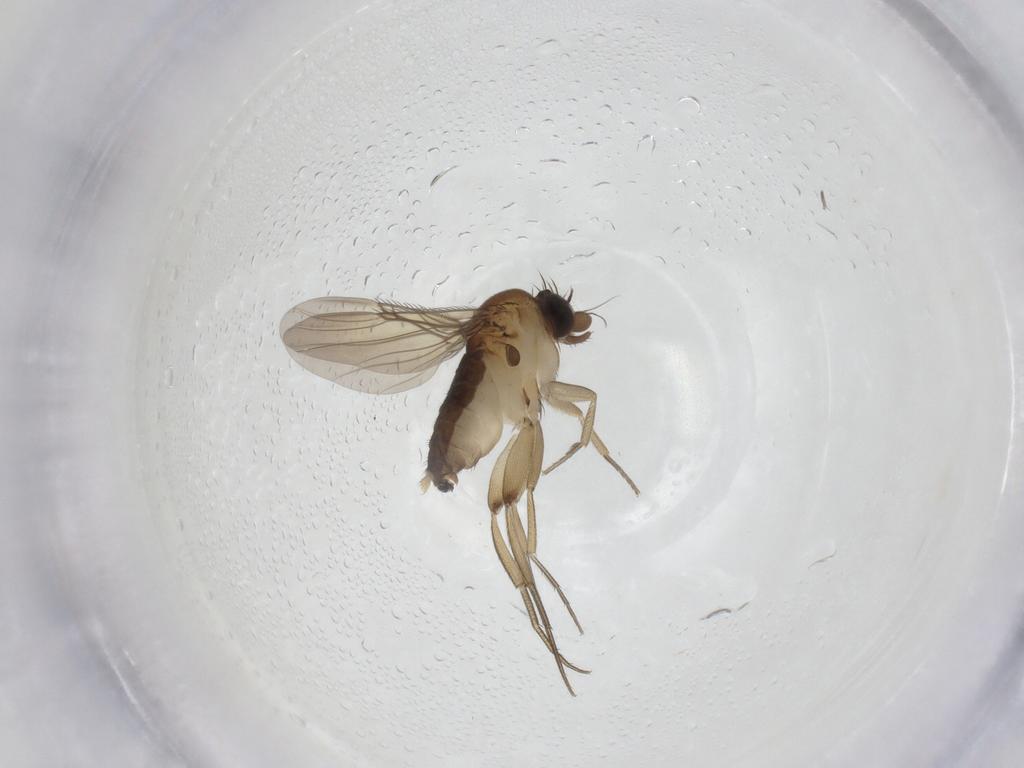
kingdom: Animalia
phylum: Arthropoda
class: Insecta
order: Diptera
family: Phoridae
